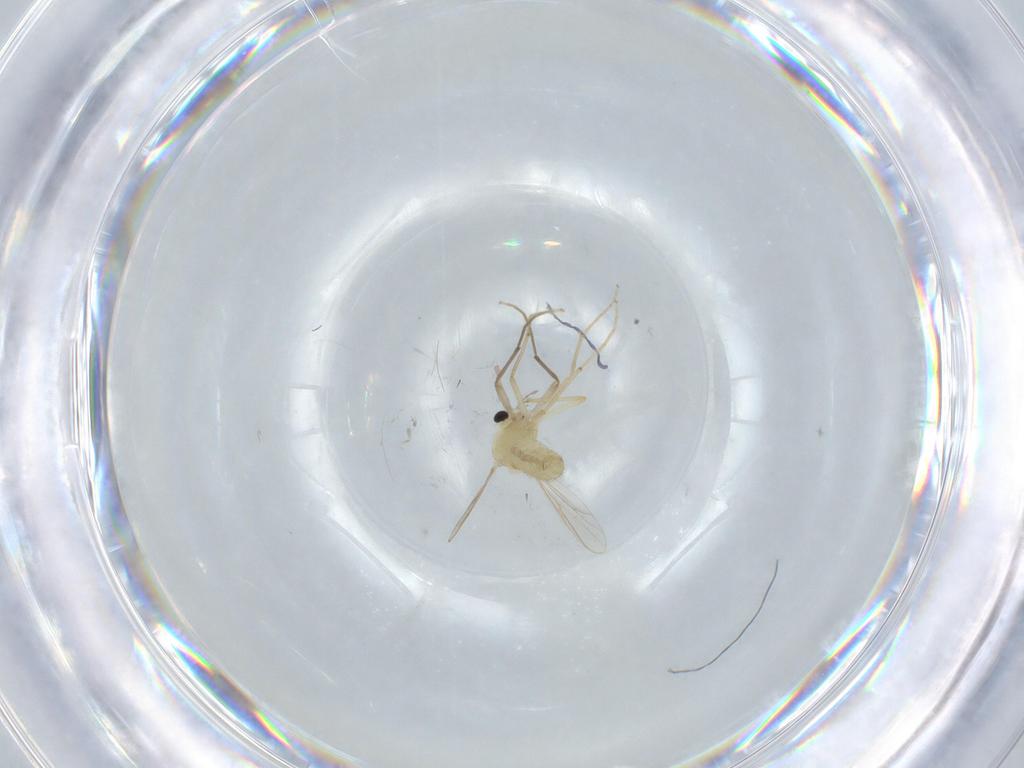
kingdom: Animalia
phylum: Arthropoda
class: Insecta
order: Diptera
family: Chironomidae
